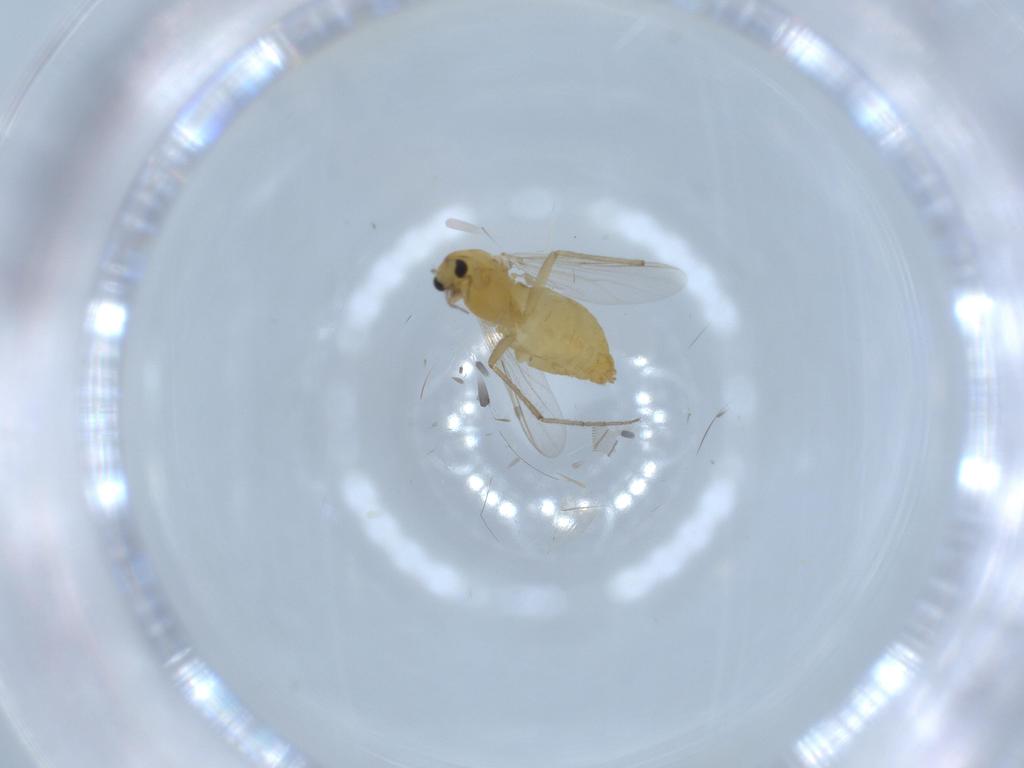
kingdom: Animalia
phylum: Arthropoda
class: Insecta
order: Diptera
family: Chironomidae
